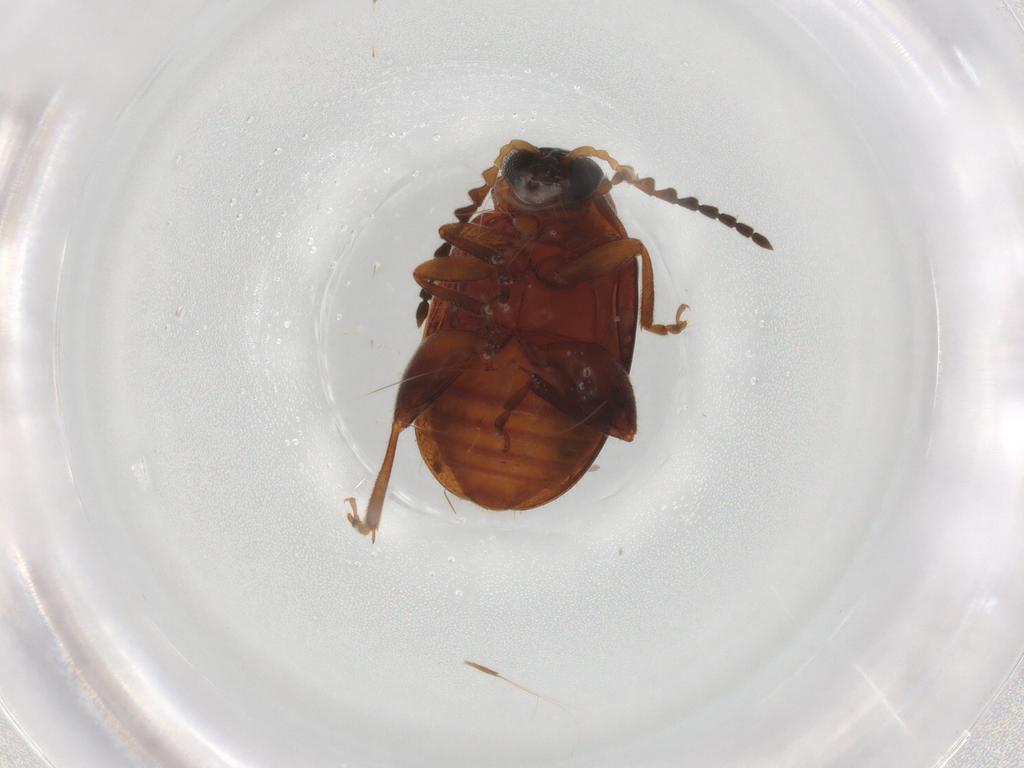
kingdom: Animalia
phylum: Arthropoda
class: Insecta
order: Coleoptera
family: Chrysomelidae
